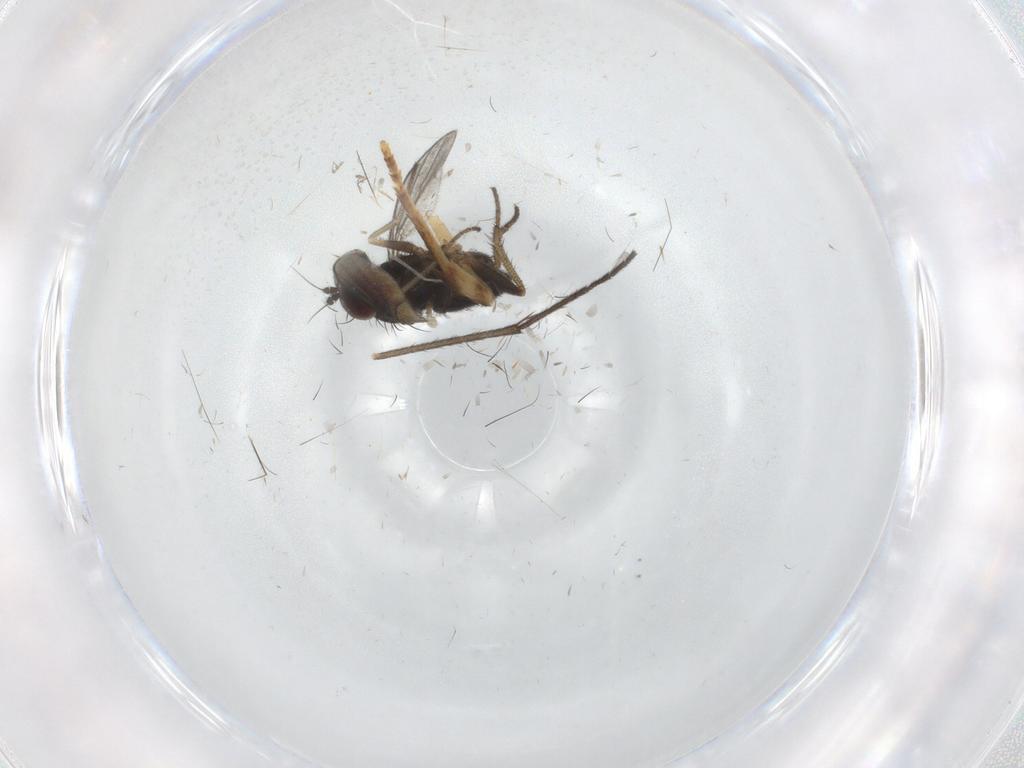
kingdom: Animalia
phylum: Arthropoda
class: Insecta
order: Diptera
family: Sciaridae
